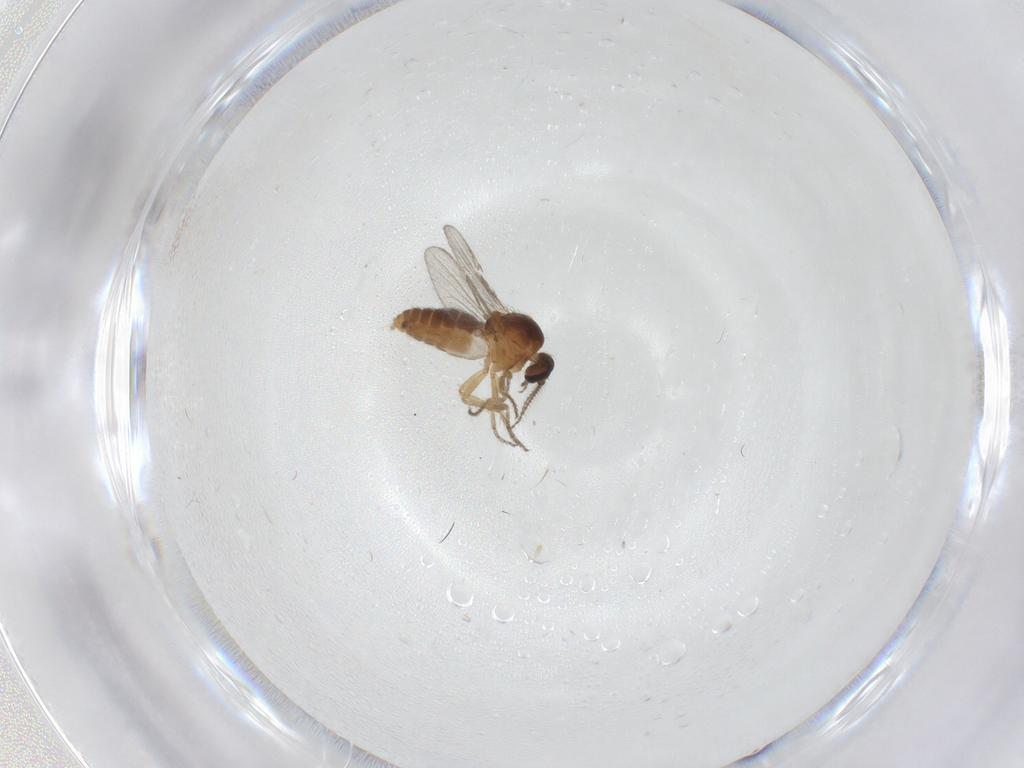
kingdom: Animalia
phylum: Arthropoda
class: Insecta
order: Diptera
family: Dolichopodidae
